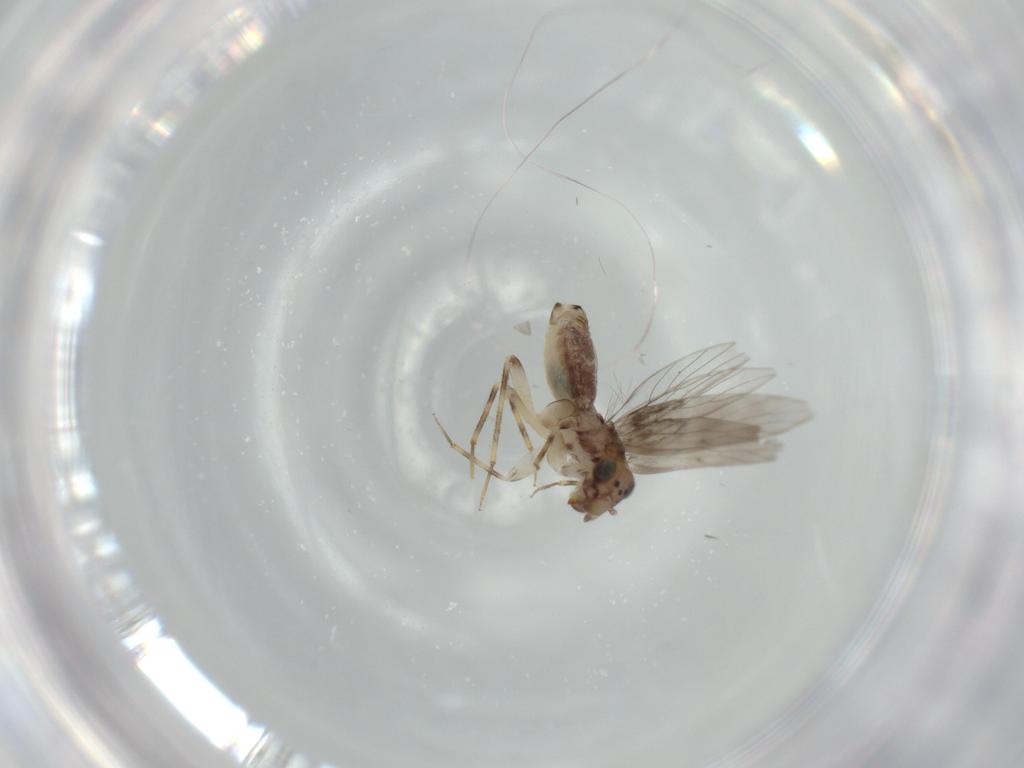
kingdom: Animalia
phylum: Arthropoda
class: Insecta
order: Psocodea
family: Lepidopsocidae
